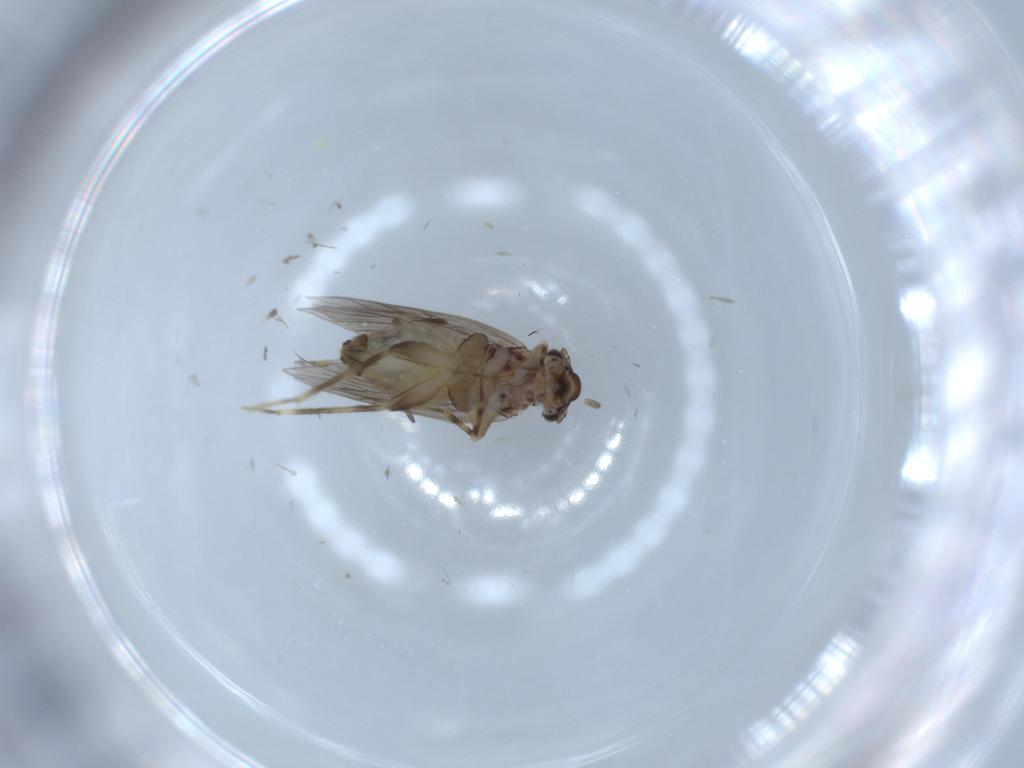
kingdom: Animalia
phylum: Arthropoda
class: Insecta
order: Psocodea
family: Lepidopsocidae
